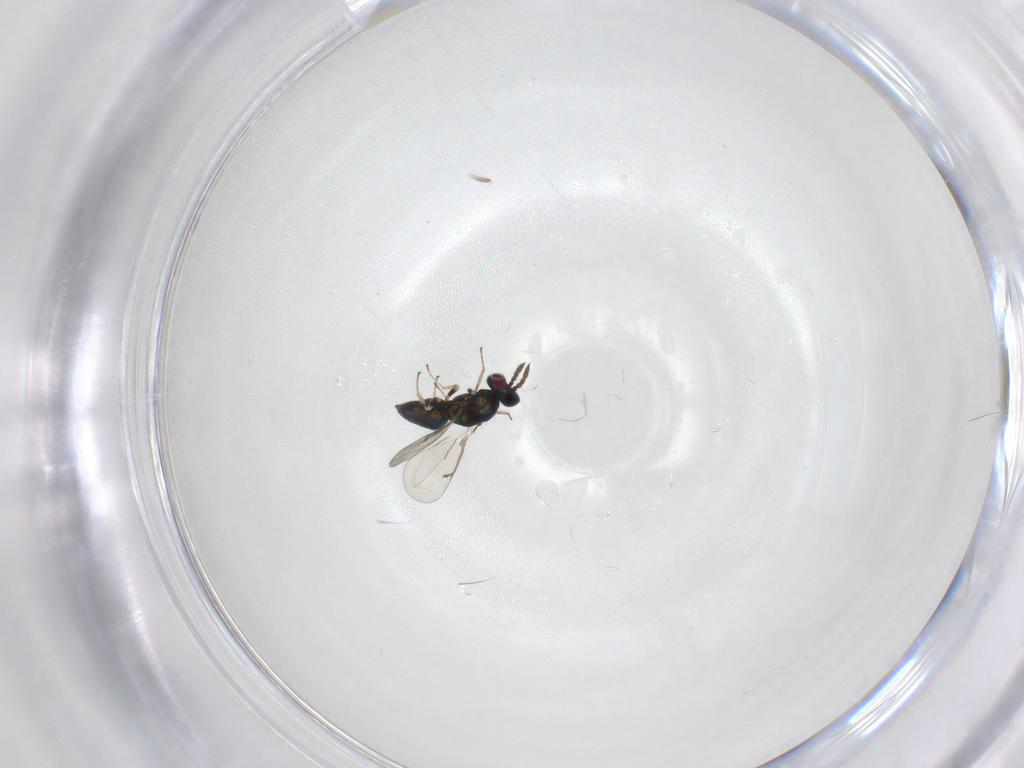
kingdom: Animalia
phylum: Arthropoda
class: Insecta
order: Hymenoptera
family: Eulophidae
